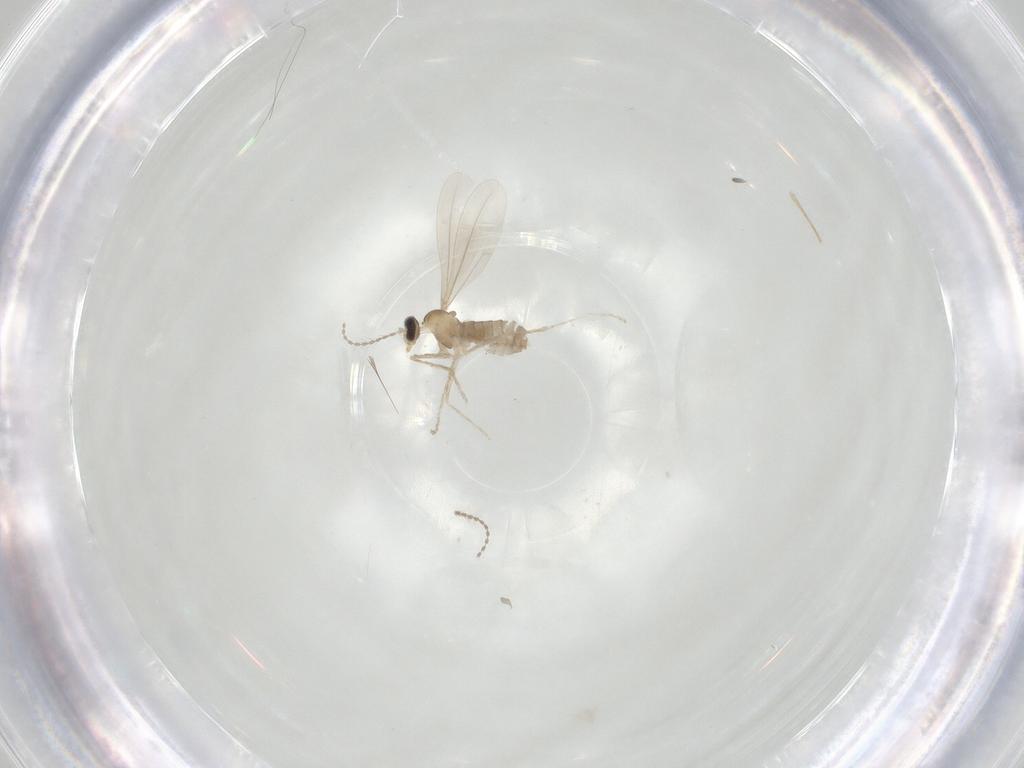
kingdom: Animalia
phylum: Arthropoda
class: Insecta
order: Diptera
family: Cecidomyiidae
